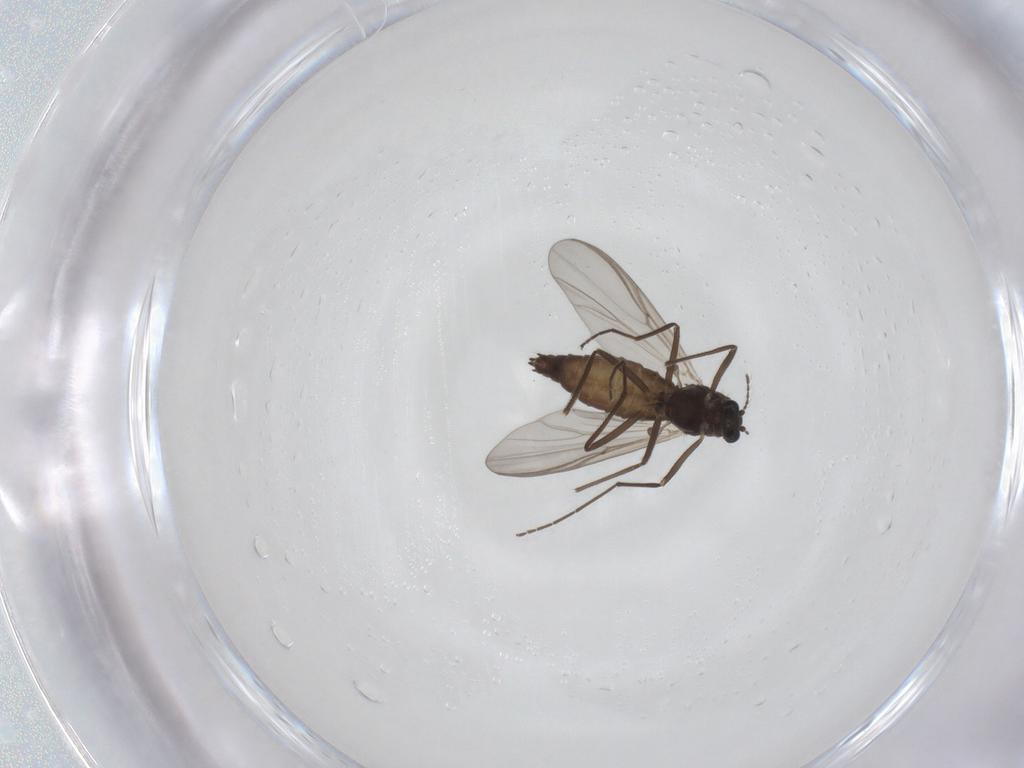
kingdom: Animalia
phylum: Arthropoda
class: Insecta
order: Diptera
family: Chironomidae
